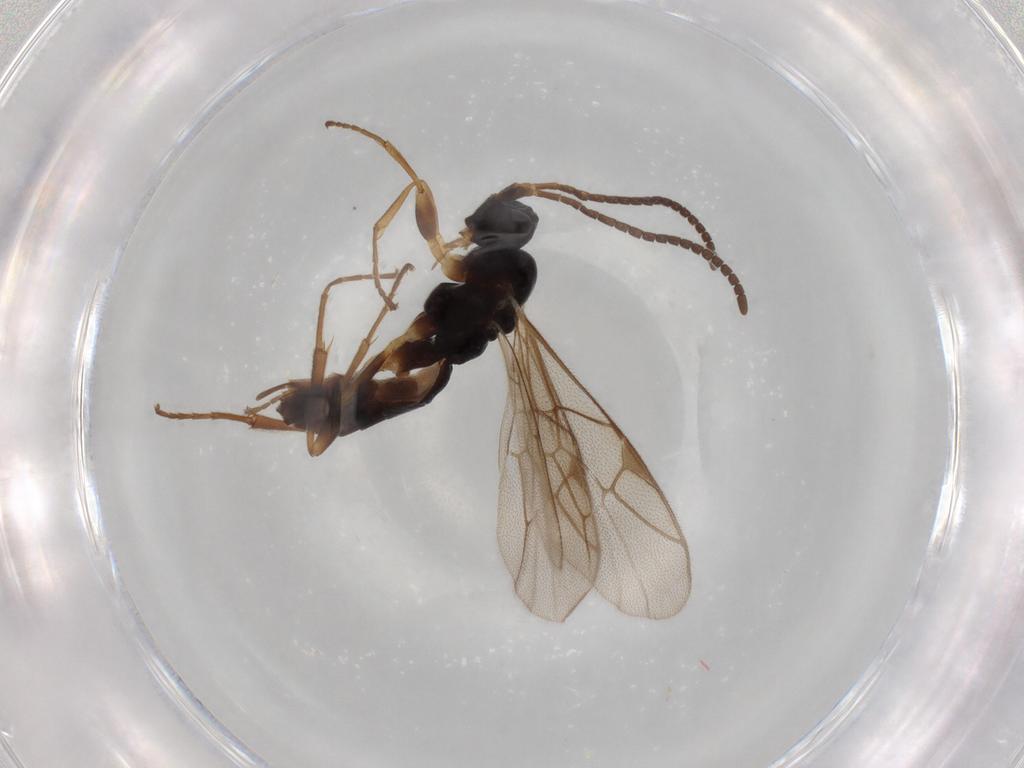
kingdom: Animalia
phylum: Arthropoda
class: Insecta
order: Hymenoptera
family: Ichneumonidae
